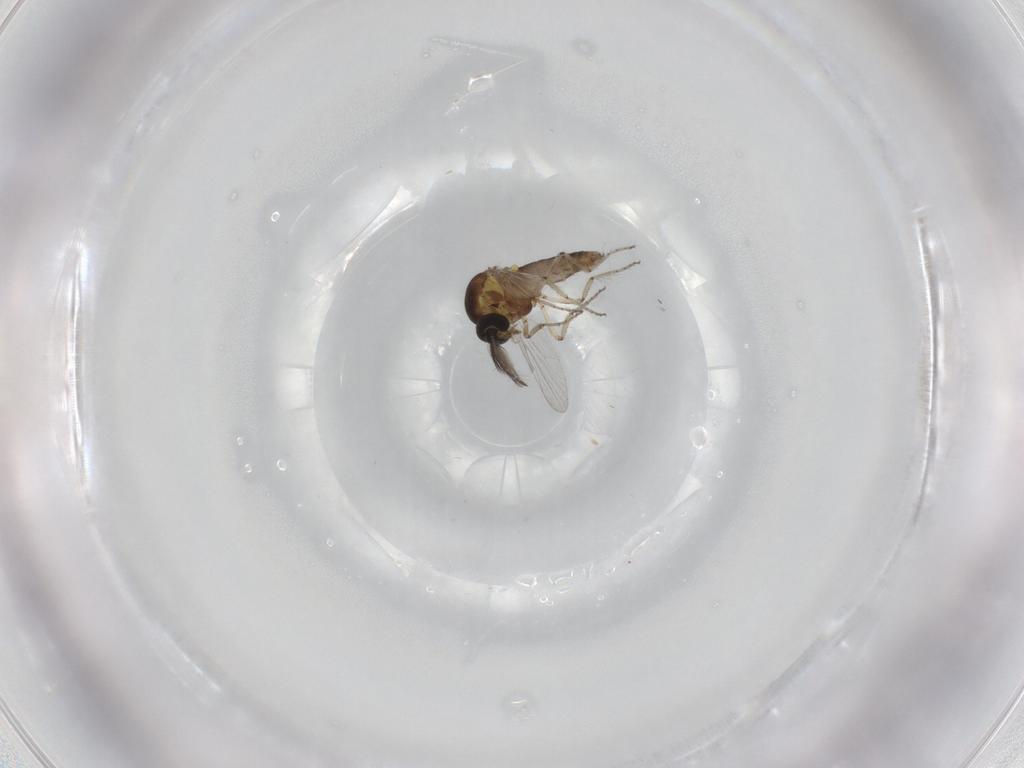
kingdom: Animalia
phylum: Arthropoda
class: Insecta
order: Diptera
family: Ceratopogonidae
